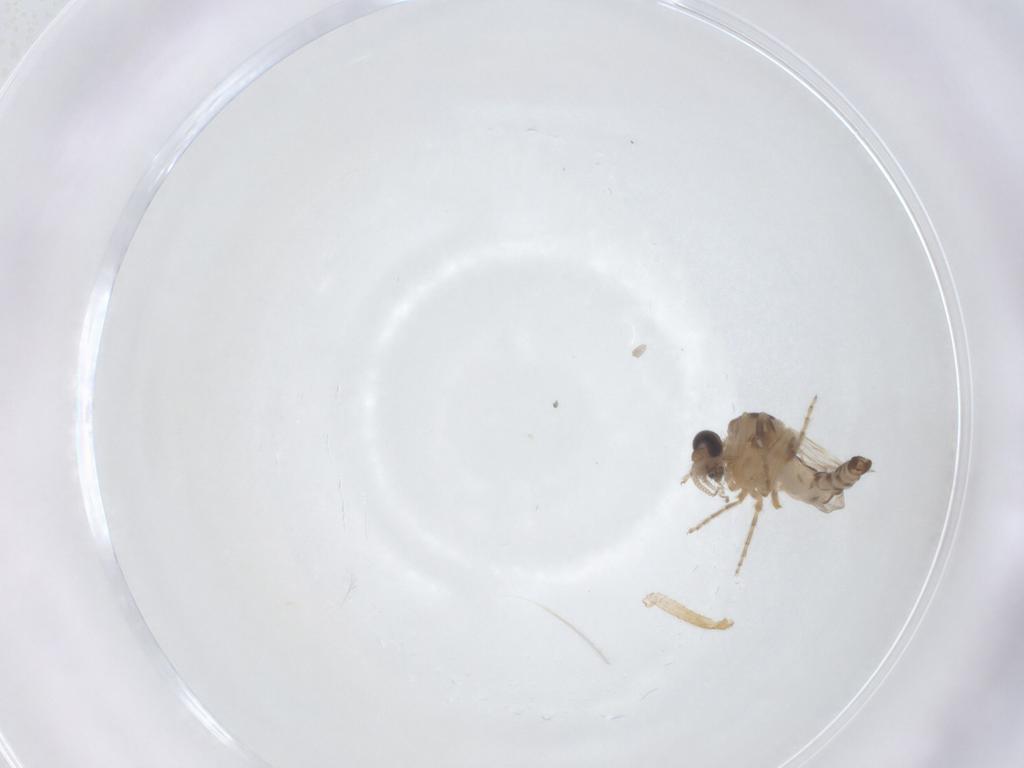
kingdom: Animalia
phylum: Arthropoda
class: Insecta
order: Diptera
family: Ceratopogonidae
